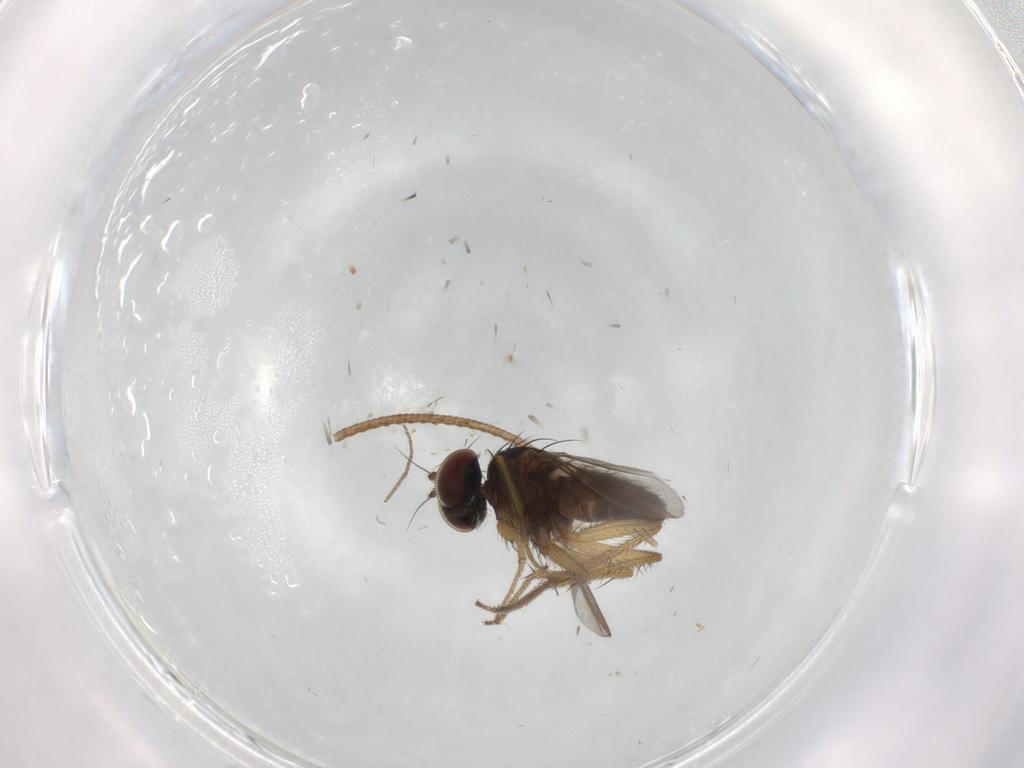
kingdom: Animalia
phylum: Arthropoda
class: Insecta
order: Diptera
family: Dolichopodidae
